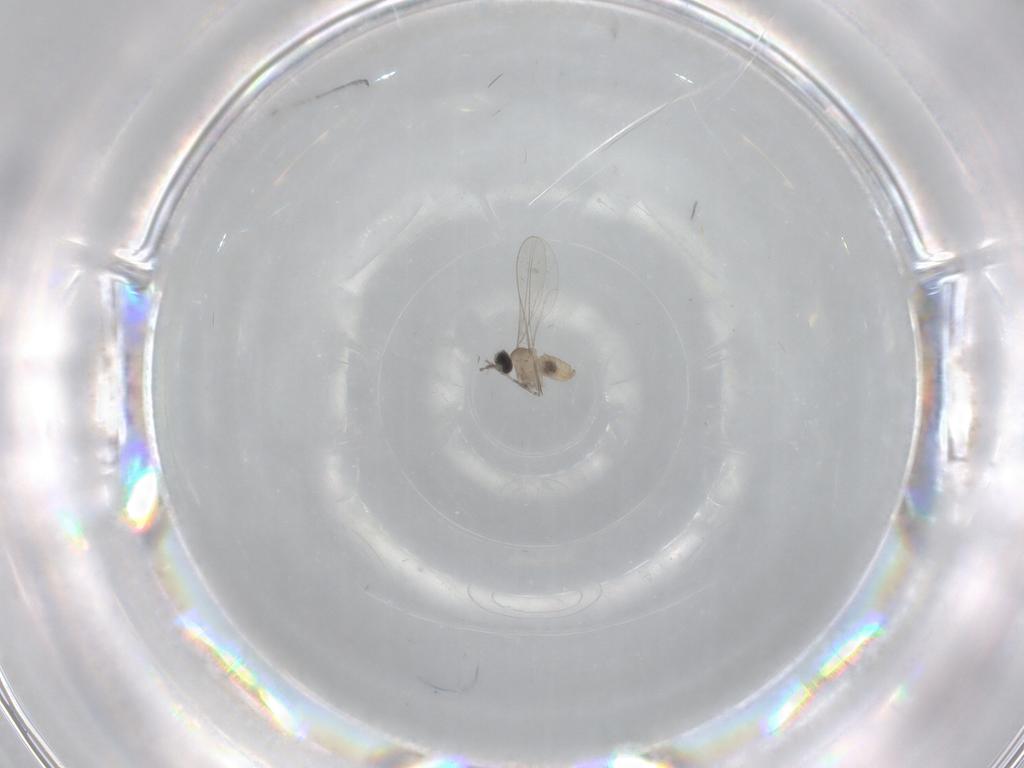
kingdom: Animalia
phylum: Arthropoda
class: Insecta
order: Diptera
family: Cecidomyiidae
